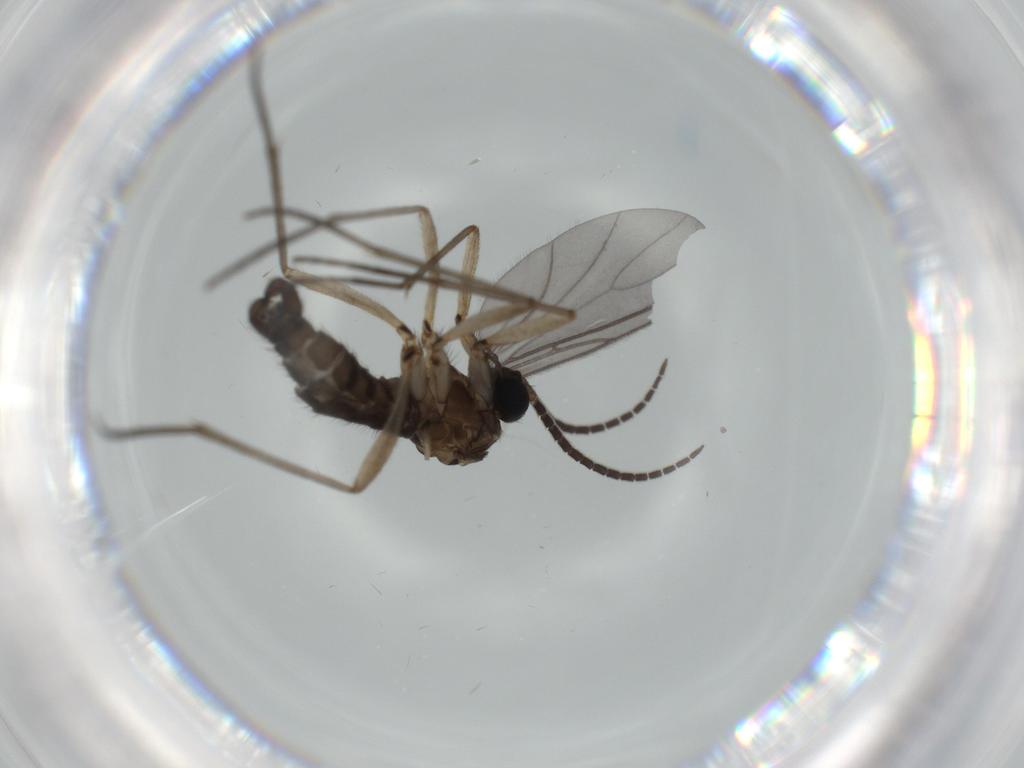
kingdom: Animalia
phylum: Arthropoda
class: Insecta
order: Diptera
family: Sciaridae
